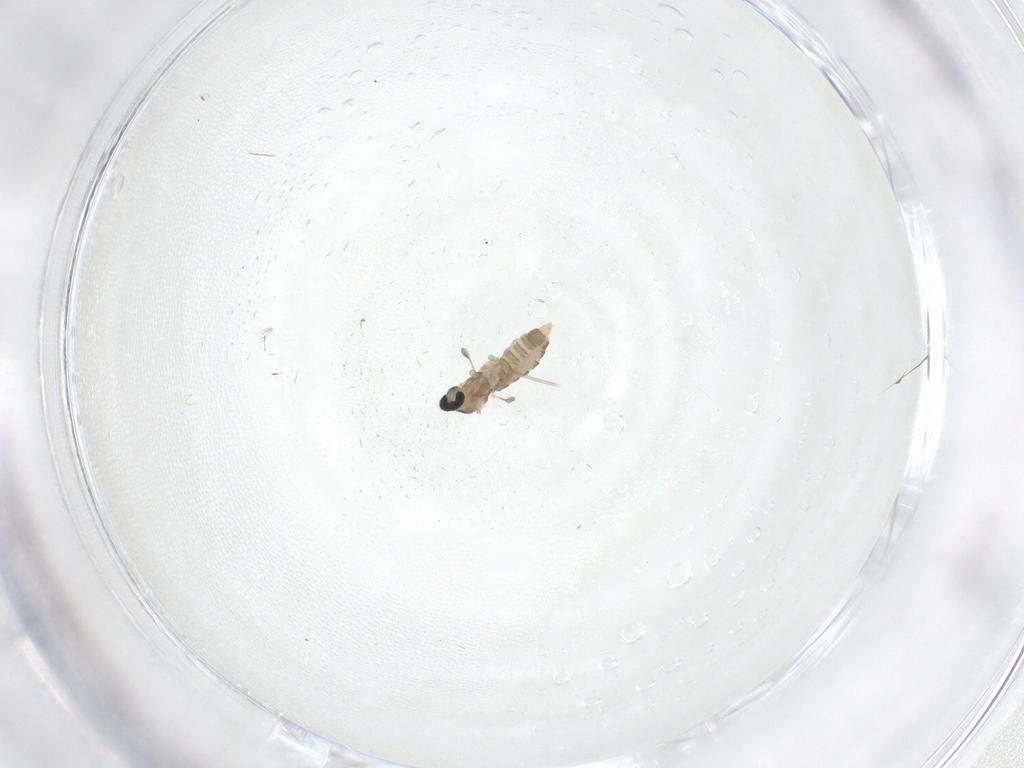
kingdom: Animalia
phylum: Arthropoda
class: Insecta
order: Diptera
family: Cecidomyiidae
